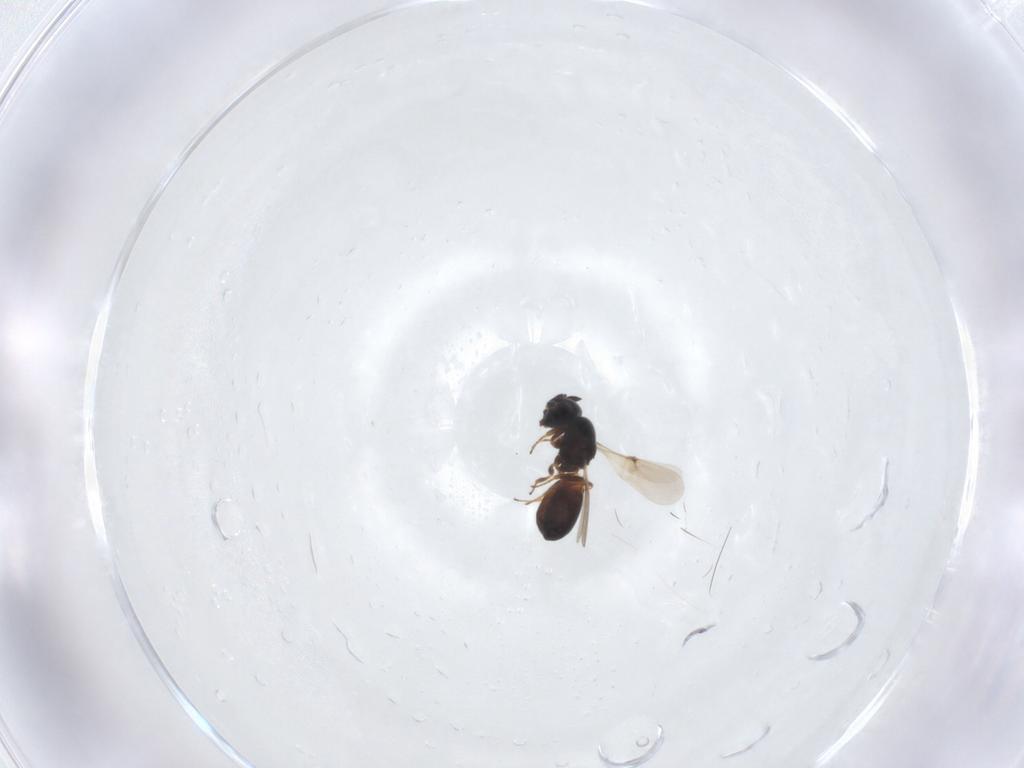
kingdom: Animalia
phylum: Arthropoda
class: Insecta
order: Hymenoptera
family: Scelionidae
